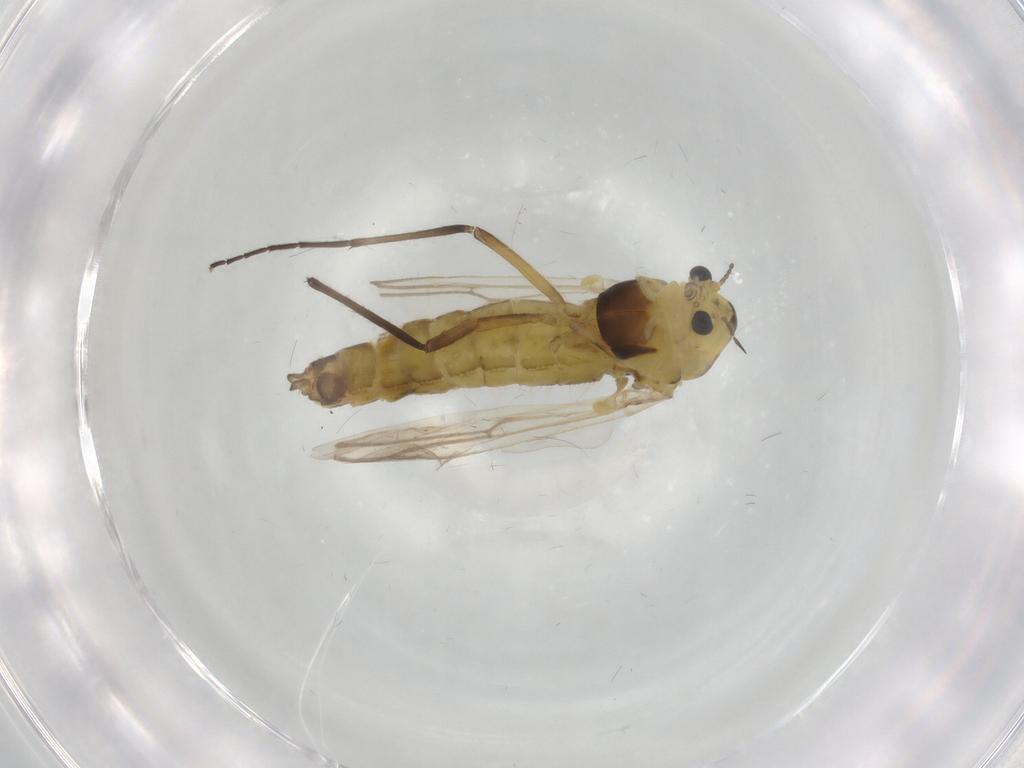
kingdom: Animalia
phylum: Arthropoda
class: Insecta
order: Diptera
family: Chironomidae
